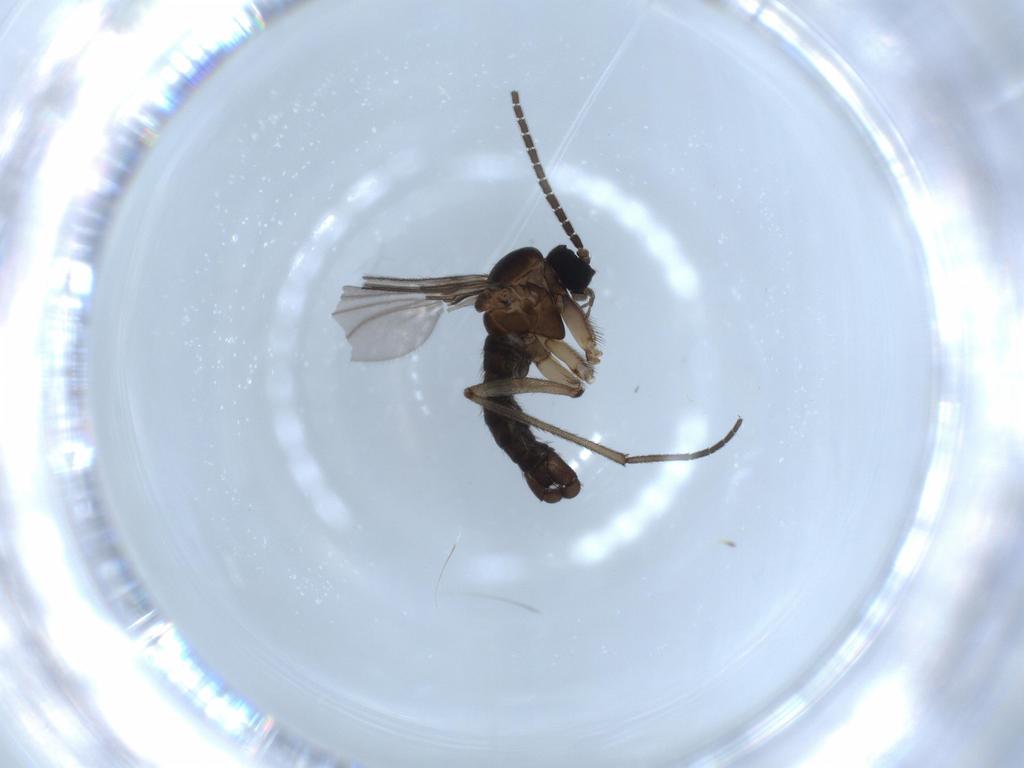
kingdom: Animalia
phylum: Arthropoda
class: Insecta
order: Diptera
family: Sciaridae
